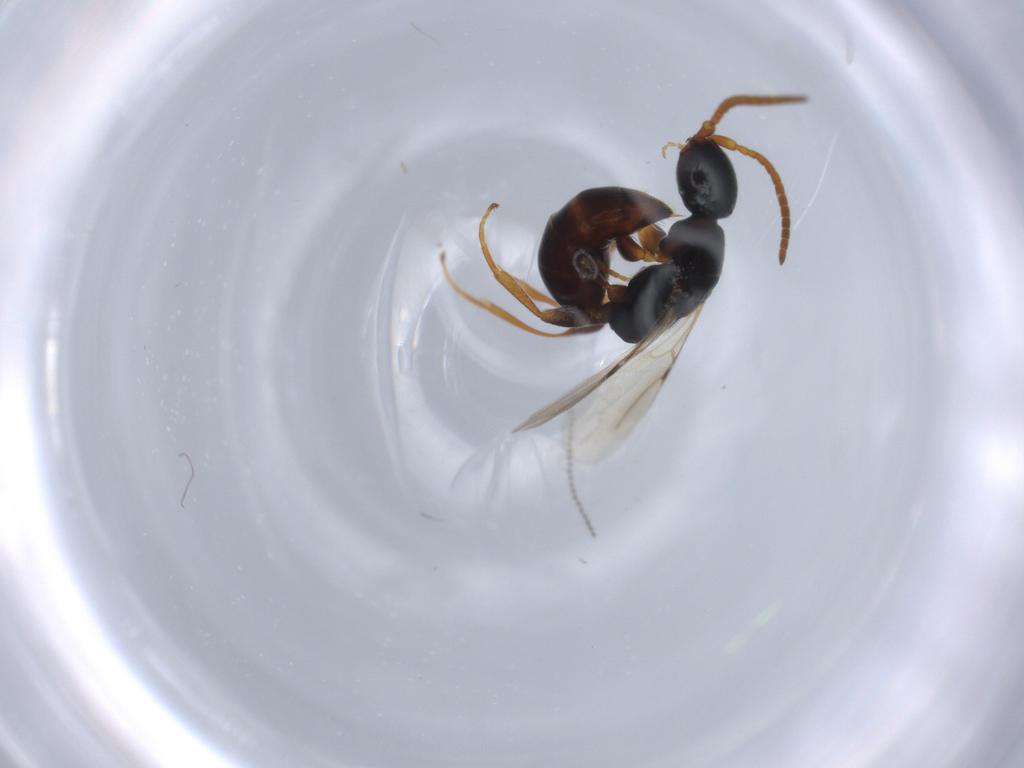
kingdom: Animalia
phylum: Arthropoda
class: Insecta
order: Hymenoptera
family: Bethylidae
